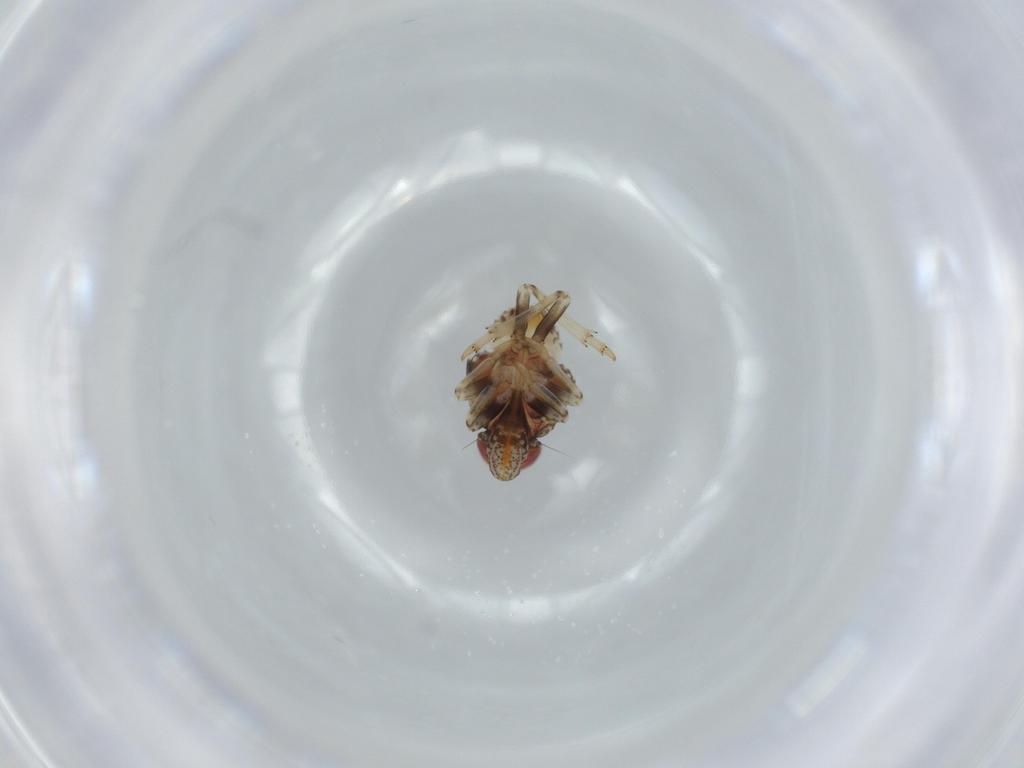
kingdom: Animalia
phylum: Arthropoda
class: Insecta
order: Hemiptera
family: Issidae
